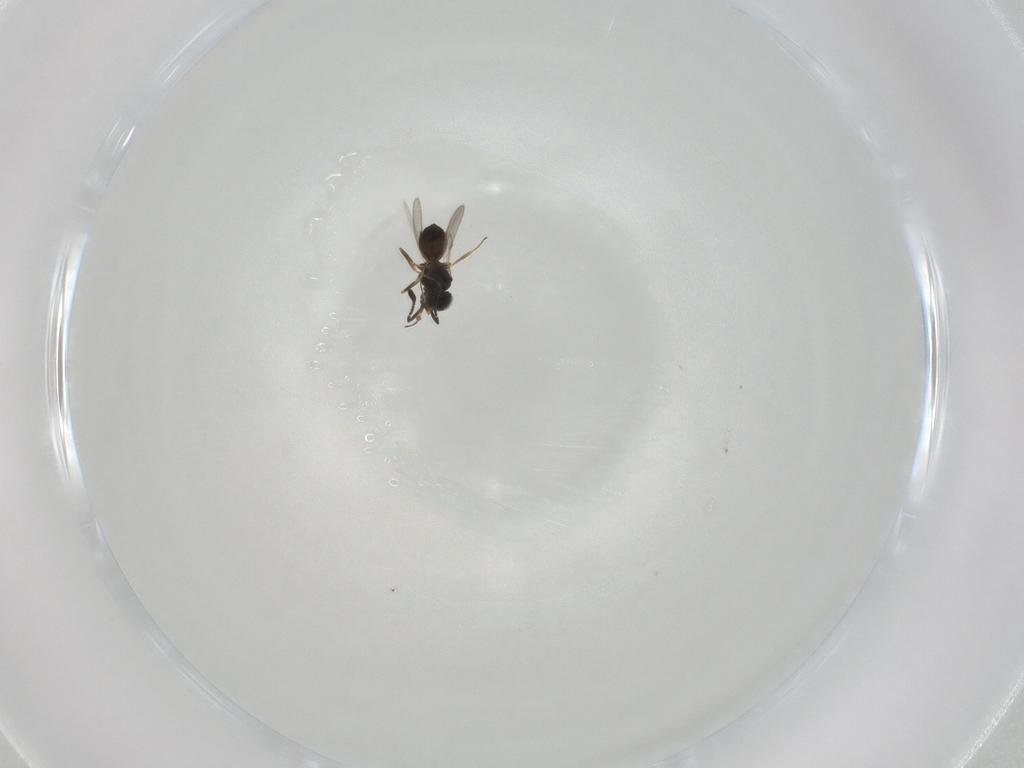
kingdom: Animalia
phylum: Arthropoda
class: Insecta
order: Hymenoptera
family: Scelionidae
